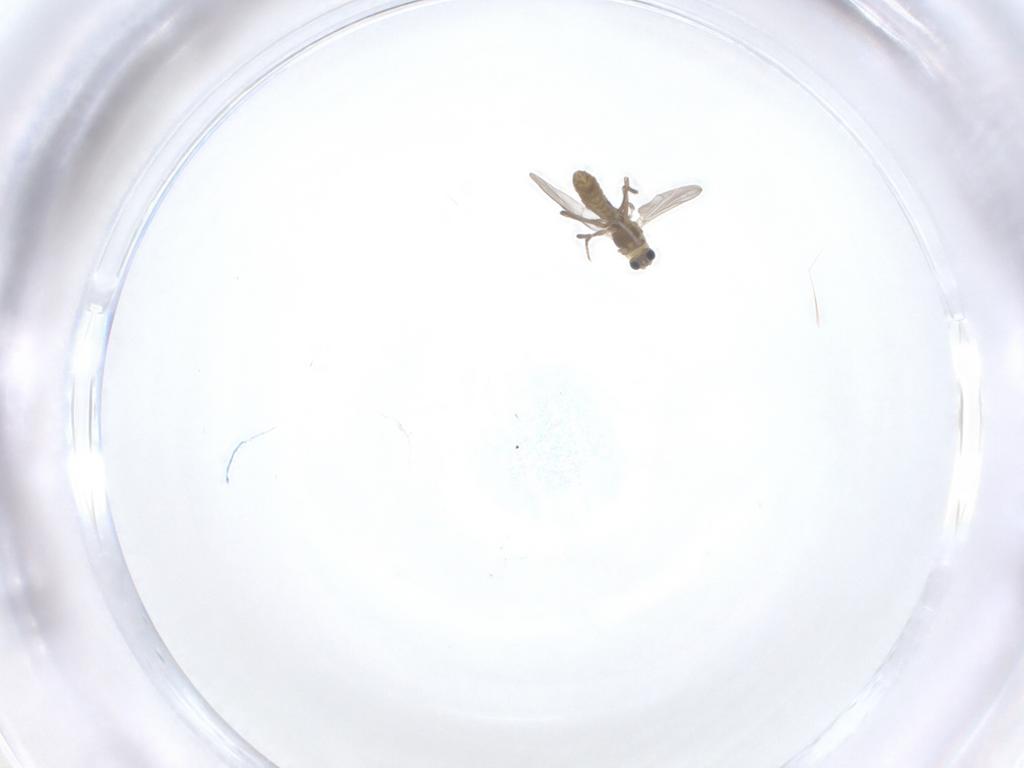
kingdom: Animalia
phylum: Arthropoda
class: Insecta
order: Diptera
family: Chironomidae
